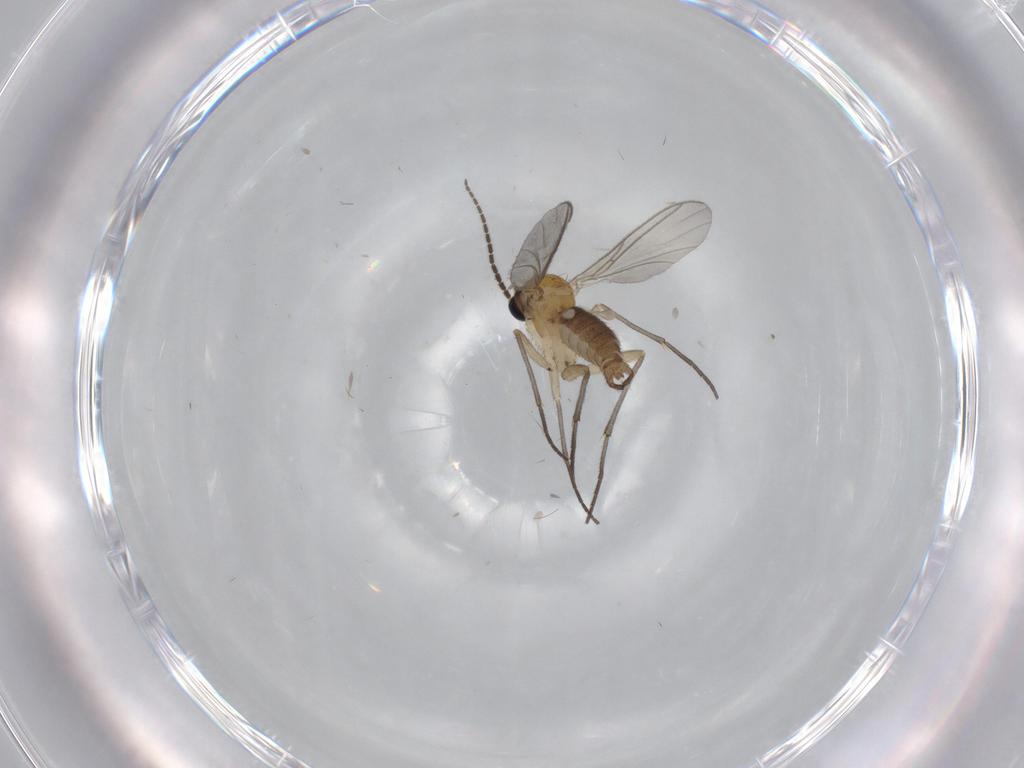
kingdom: Animalia
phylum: Arthropoda
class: Insecta
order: Diptera
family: Sciaridae
